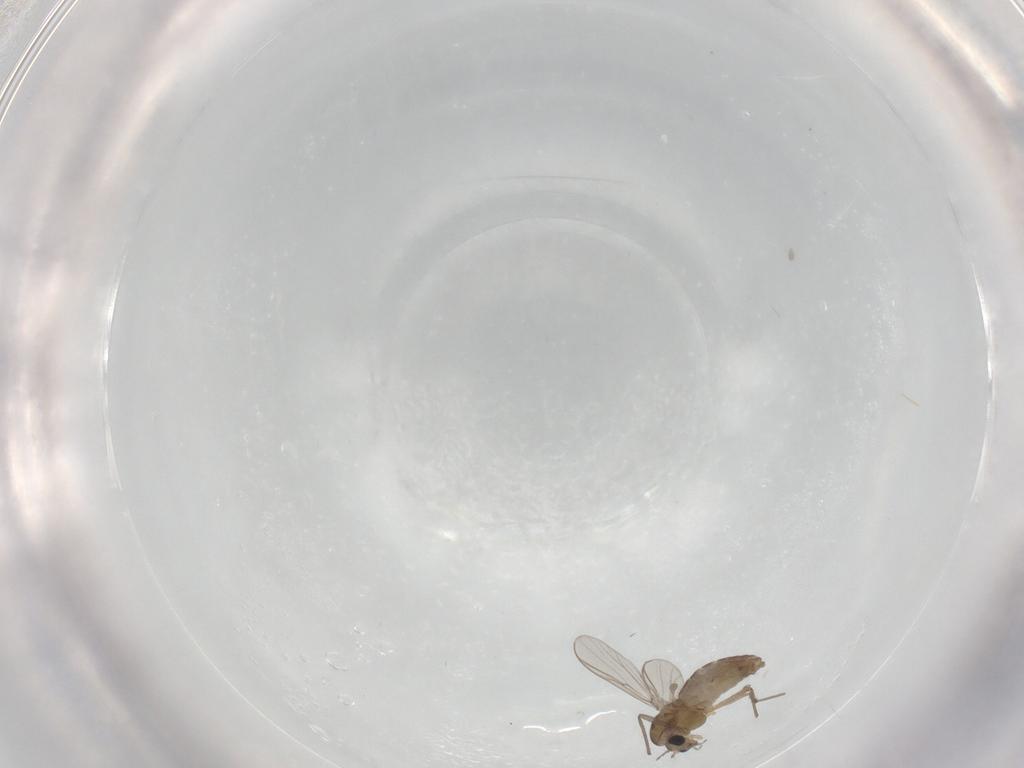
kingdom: Animalia
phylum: Arthropoda
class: Insecta
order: Diptera
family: Chironomidae
